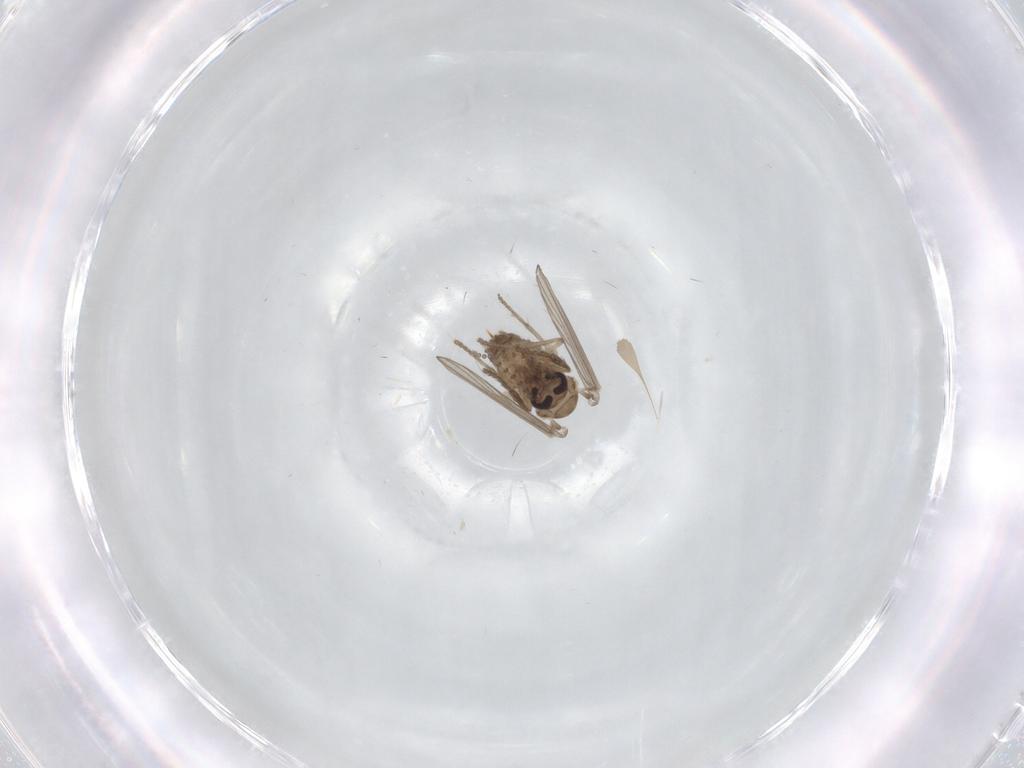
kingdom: Animalia
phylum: Arthropoda
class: Insecta
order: Diptera
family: Psychodidae
